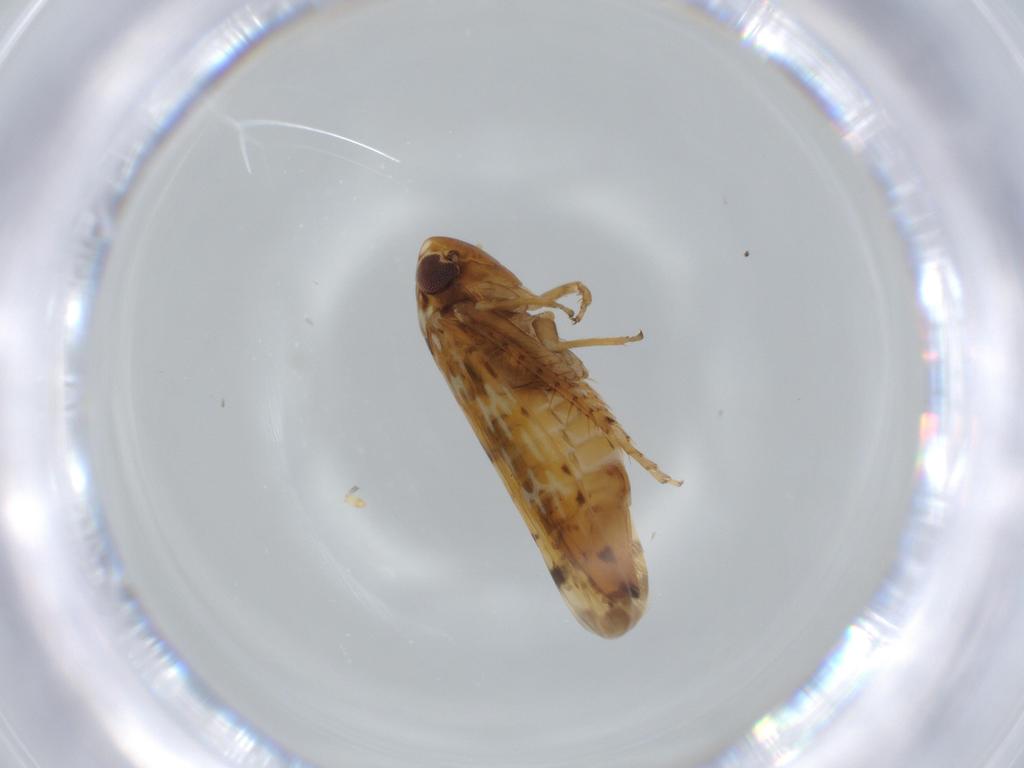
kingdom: Animalia
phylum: Arthropoda
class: Insecta
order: Hemiptera
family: Cicadellidae
